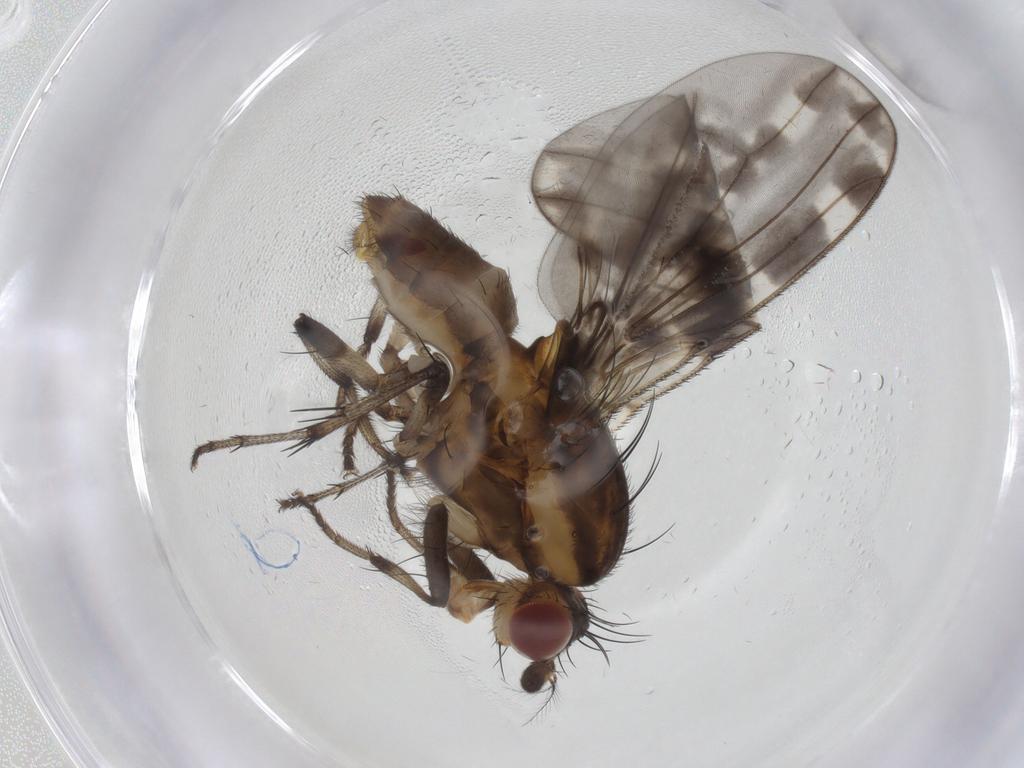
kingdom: Animalia
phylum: Arthropoda
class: Insecta
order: Diptera
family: Heleomyzidae
